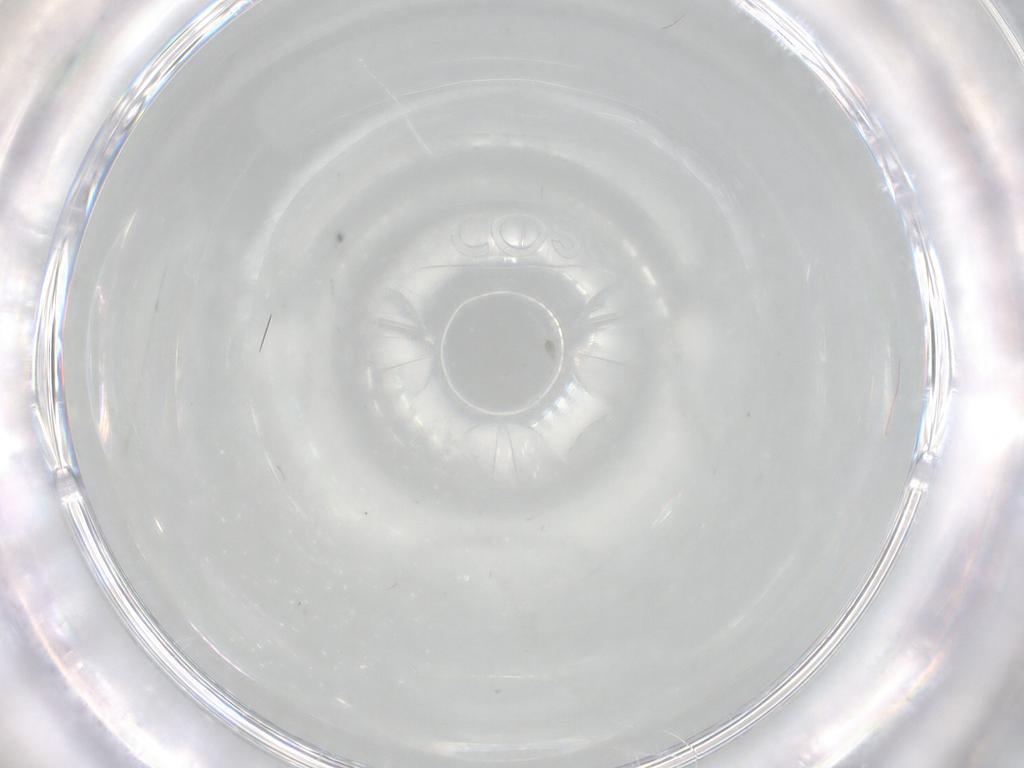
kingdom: Animalia
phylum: Arthropoda
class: Insecta
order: Diptera
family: Cecidomyiidae
